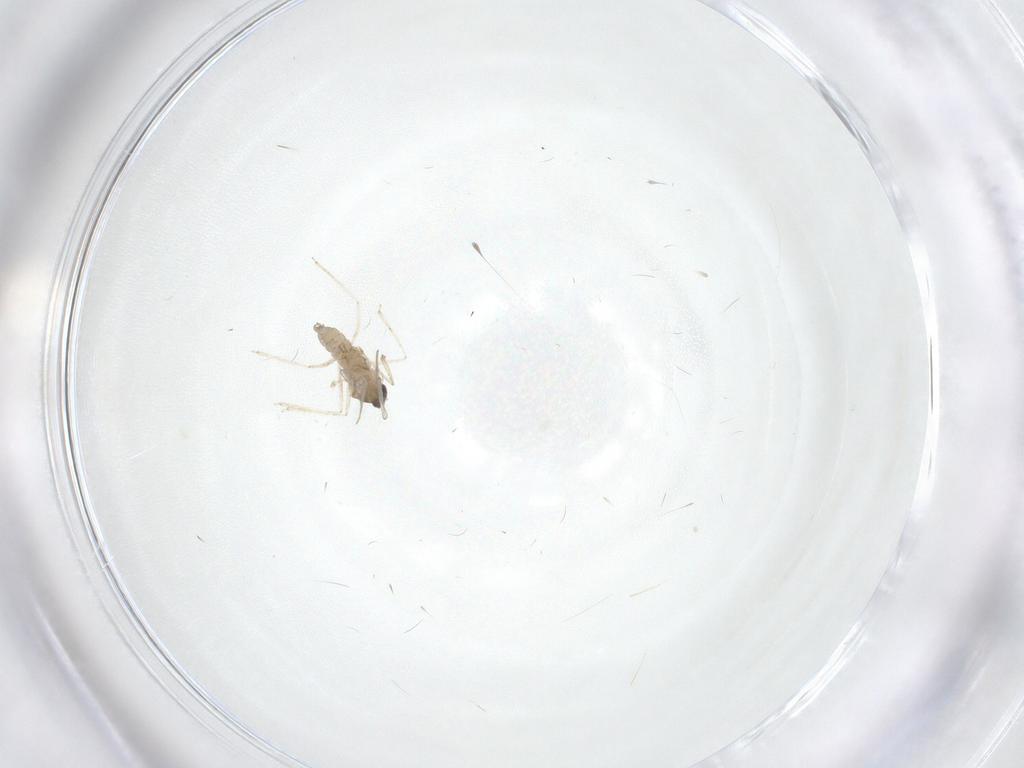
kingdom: Animalia
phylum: Arthropoda
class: Insecta
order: Diptera
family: Cecidomyiidae
